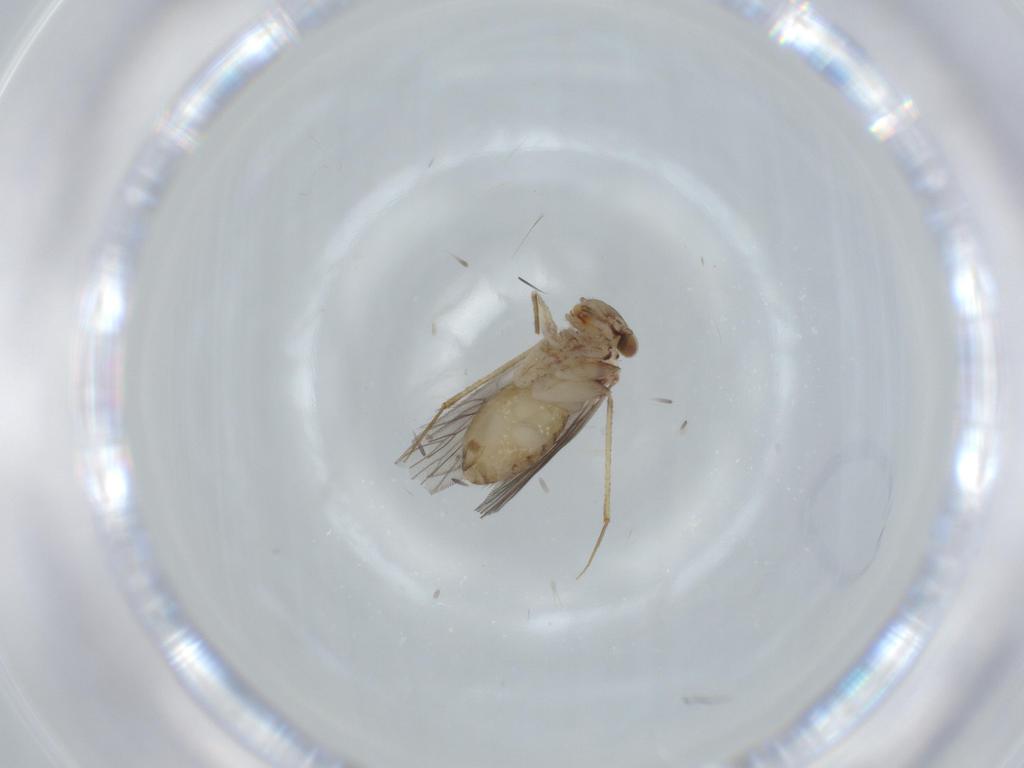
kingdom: Animalia
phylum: Arthropoda
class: Insecta
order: Psocodea
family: Lepidopsocidae
